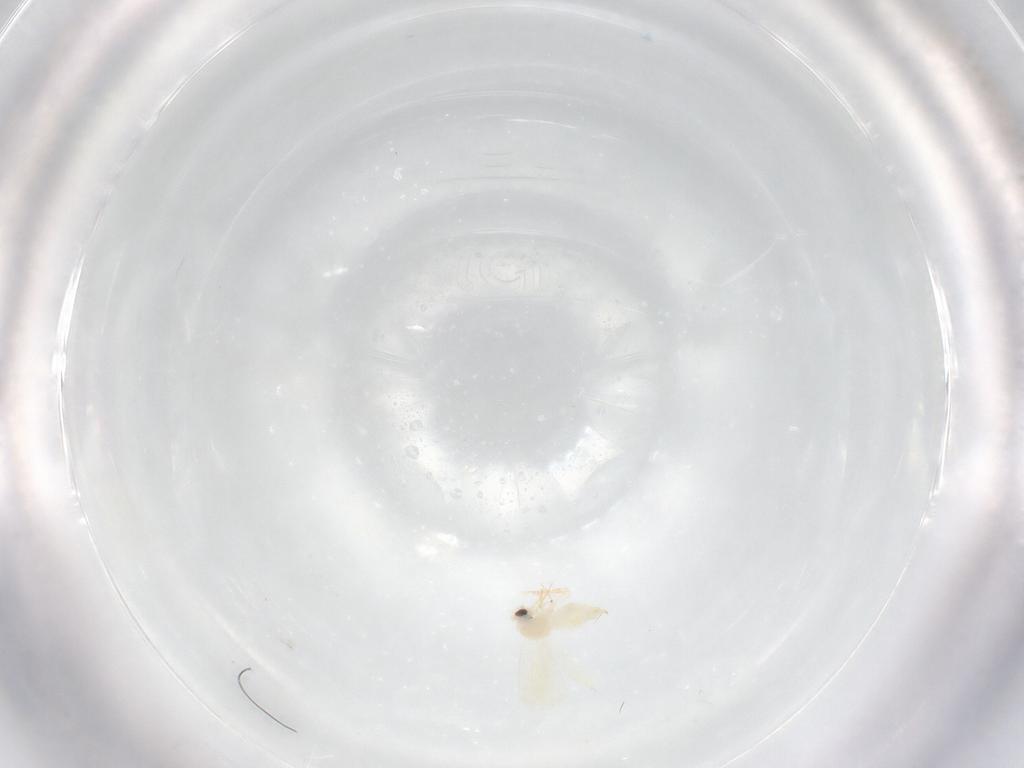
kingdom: Animalia
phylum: Arthropoda
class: Insecta
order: Hemiptera
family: Aleyrodidae
